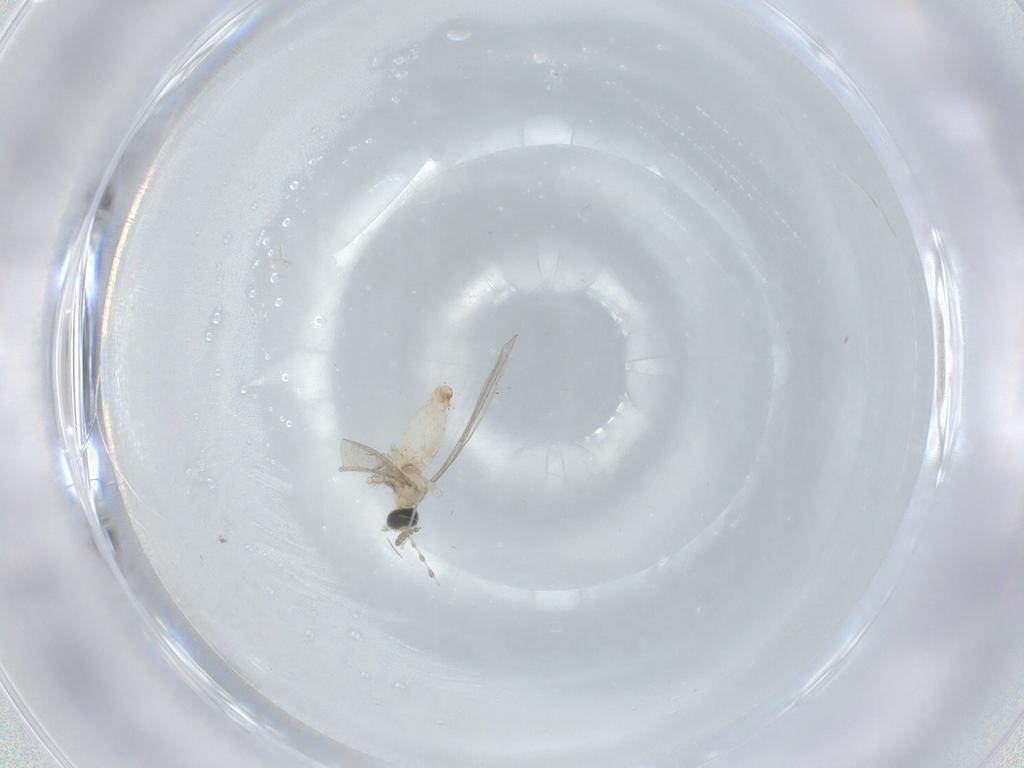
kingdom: Animalia
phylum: Arthropoda
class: Insecta
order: Diptera
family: Cecidomyiidae
